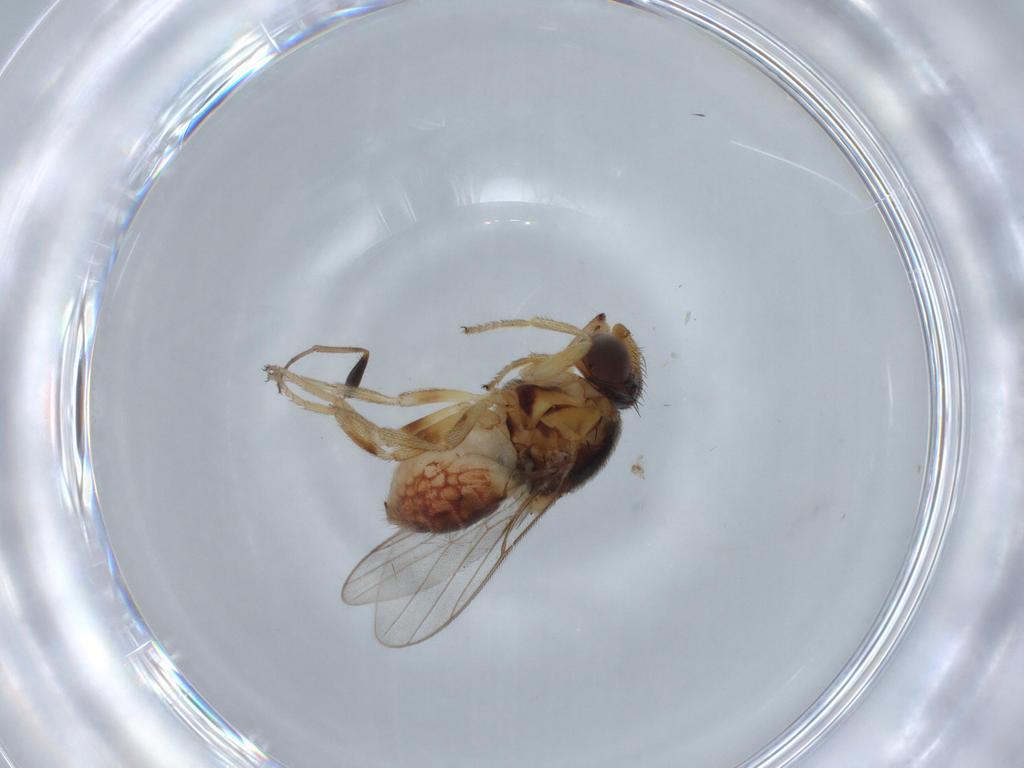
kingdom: Animalia
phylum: Arthropoda
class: Insecta
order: Diptera
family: Chloropidae
